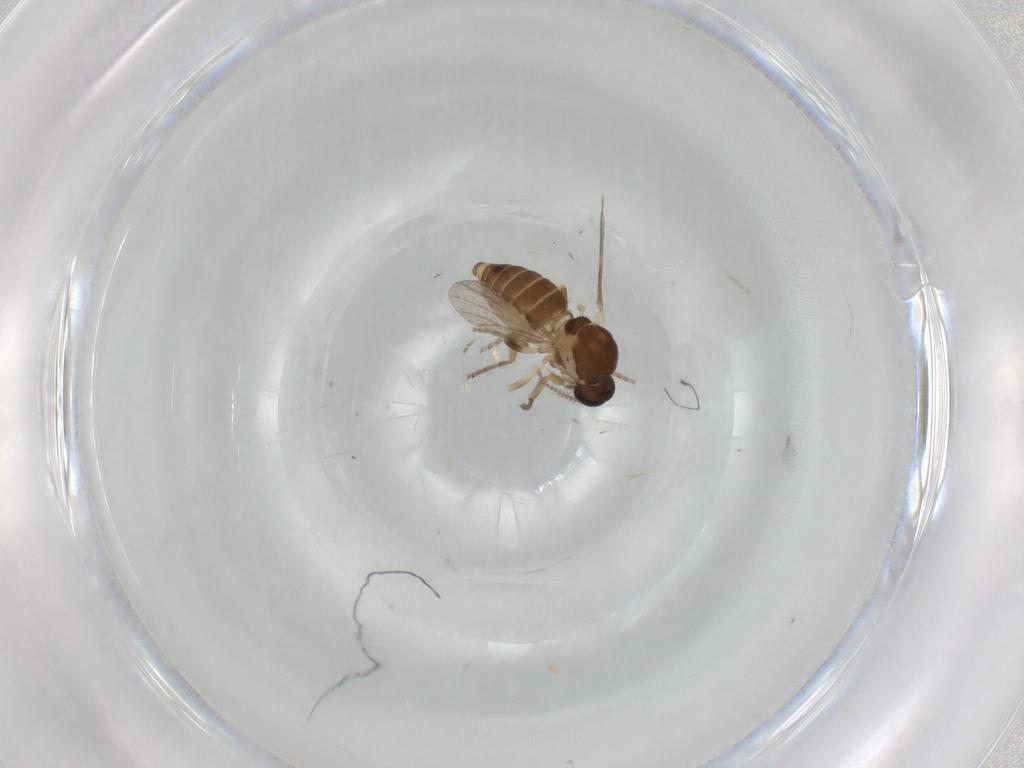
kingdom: Animalia
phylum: Arthropoda
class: Insecta
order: Diptera
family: Ceratopogonidae
